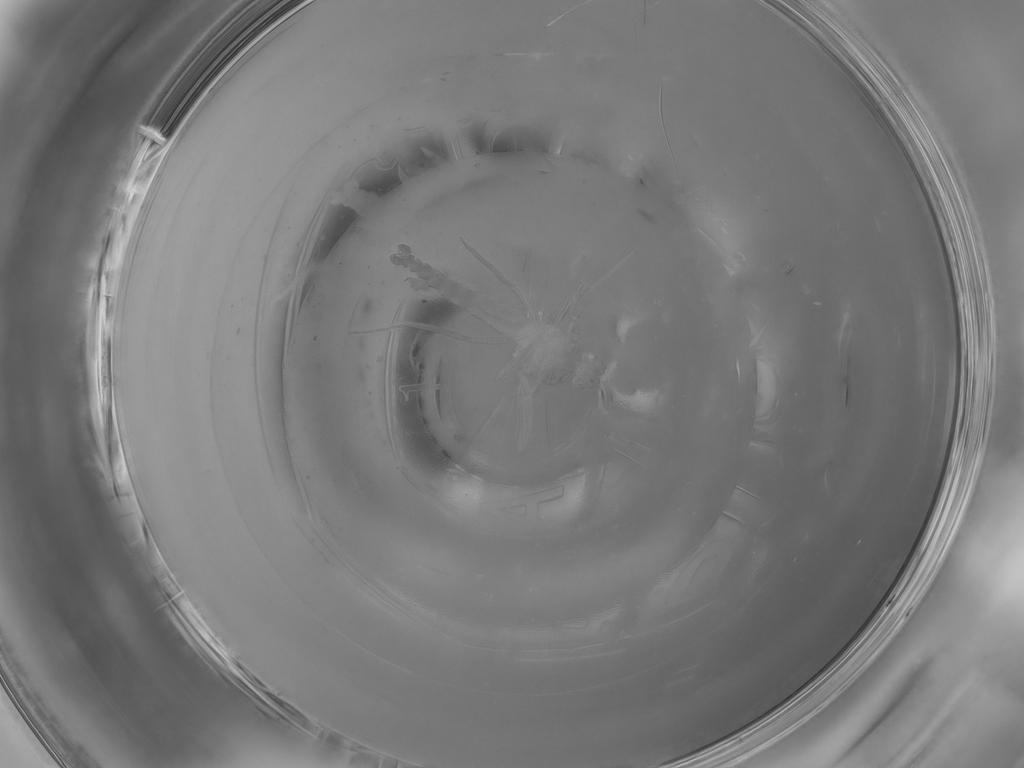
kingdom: Animalia
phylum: Arthropoda
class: Insecta
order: Diptera
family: Ceratopogonidae
